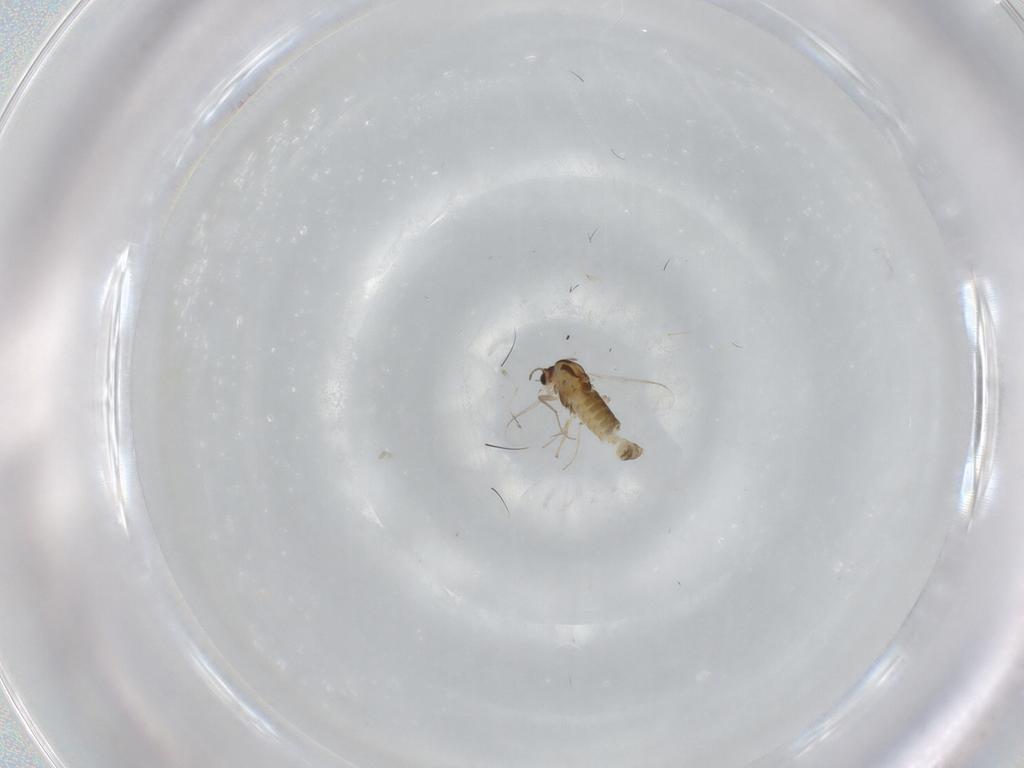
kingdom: Animalia
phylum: Arthropoda
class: Insecta
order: Diptera
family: Chironomidae
